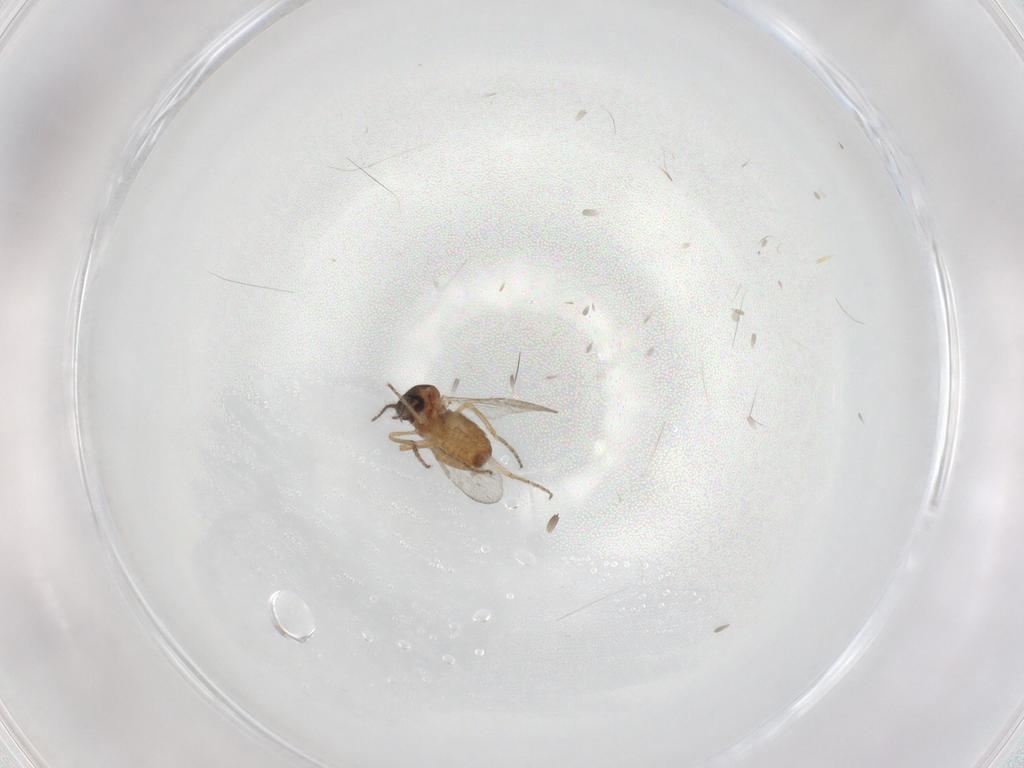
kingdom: Animalia
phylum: Arthropoda
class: Insecta
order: Diptera
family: Ceratopogonidae
